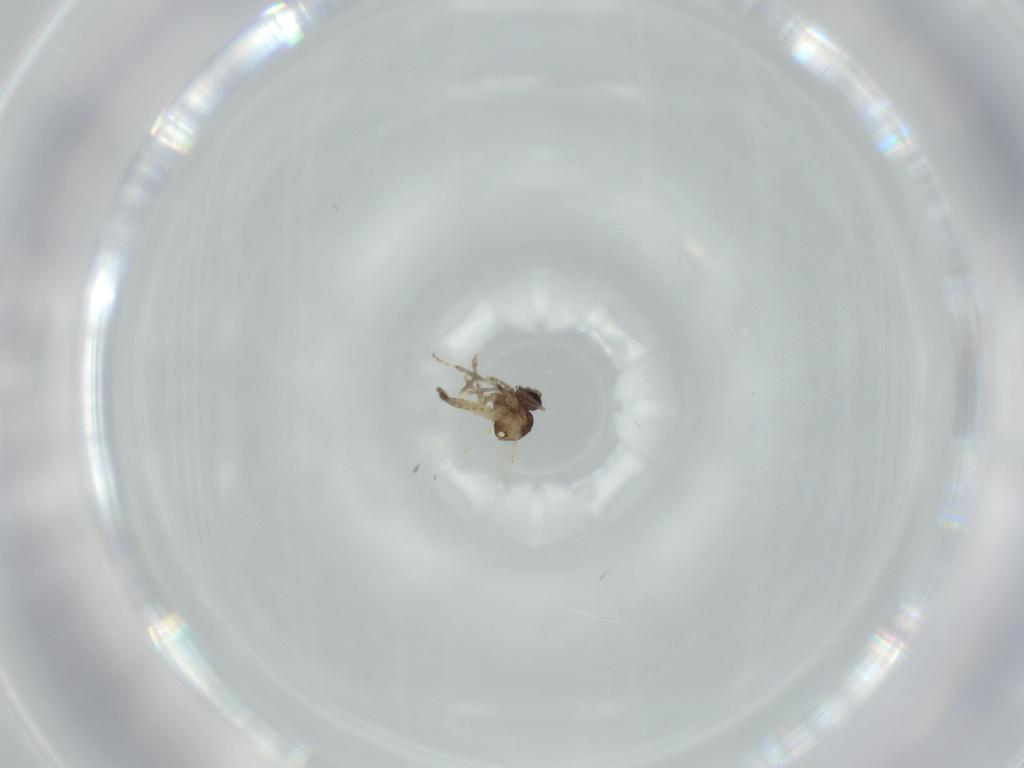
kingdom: Animalia
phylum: Arthropoda
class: Insecta
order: Diptera
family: Ceratopogonidae
